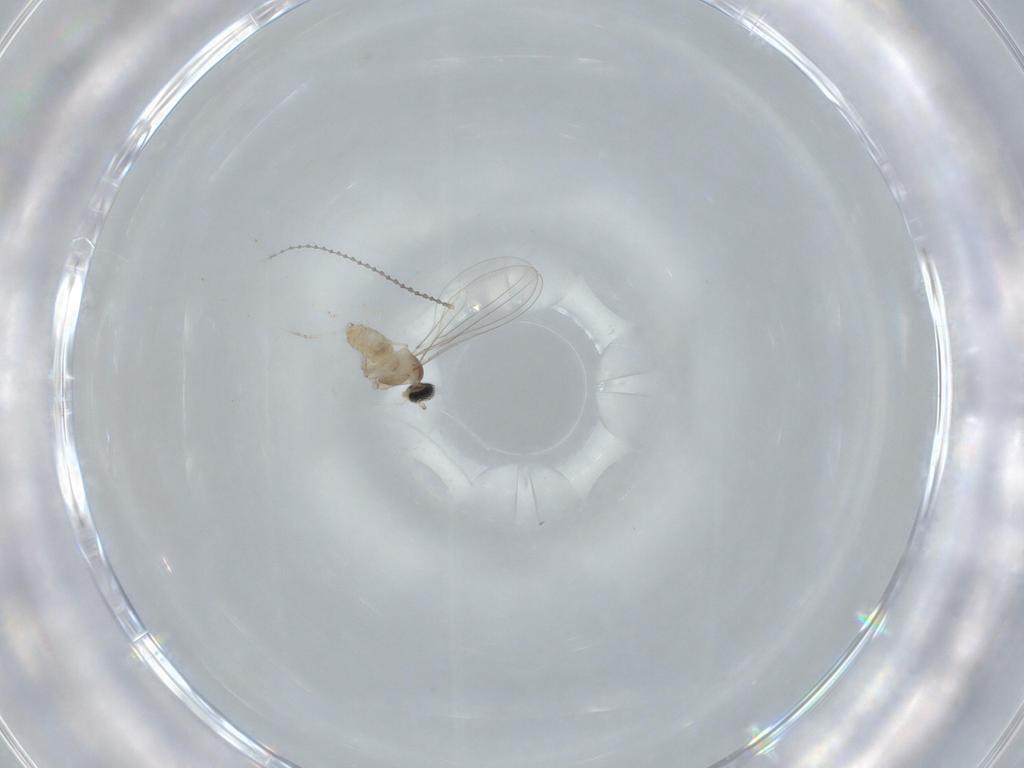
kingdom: Animalia
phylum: Arthropoda
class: Insecta
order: Diptera
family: Cecidomyiidae
